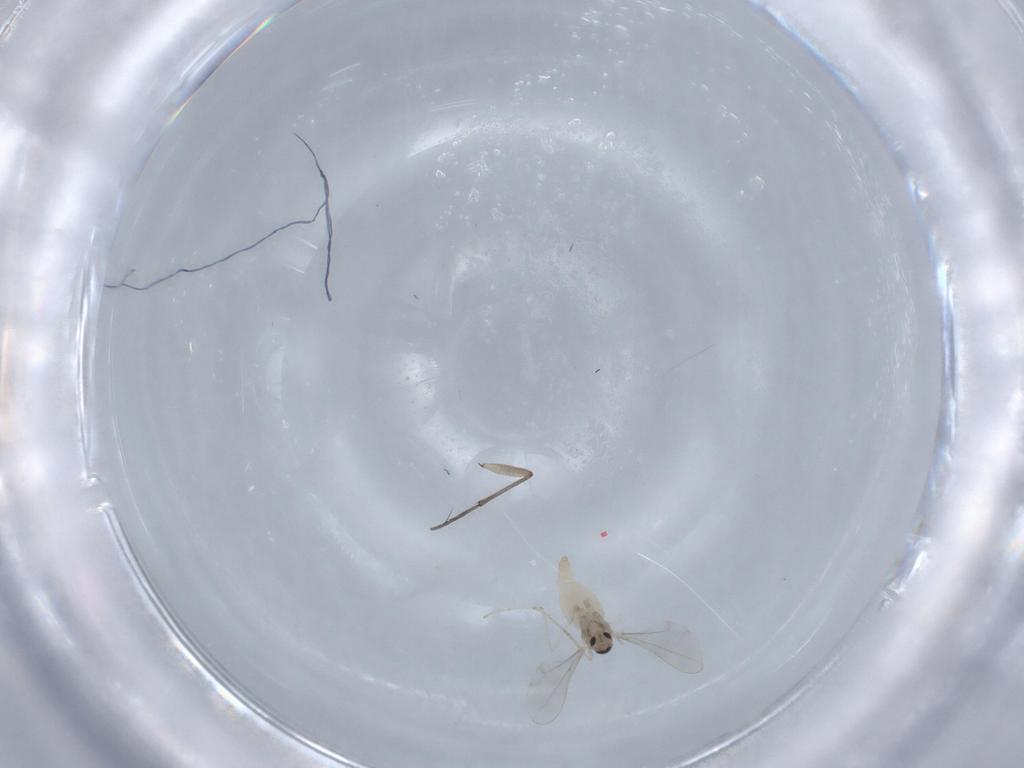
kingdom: Animalia
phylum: Arthropoda
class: Insecta
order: Diptera
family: Cecidomyiidae
